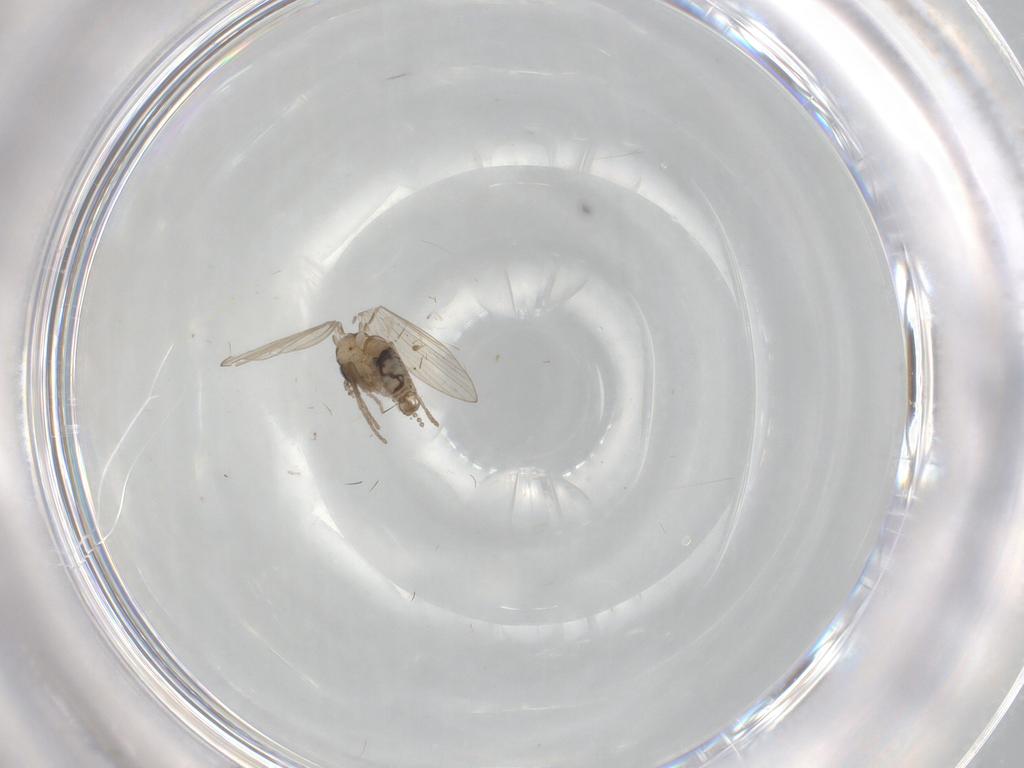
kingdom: Animalia
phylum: Arthropoda
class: Insecta
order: Diptera
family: Psychodidae
